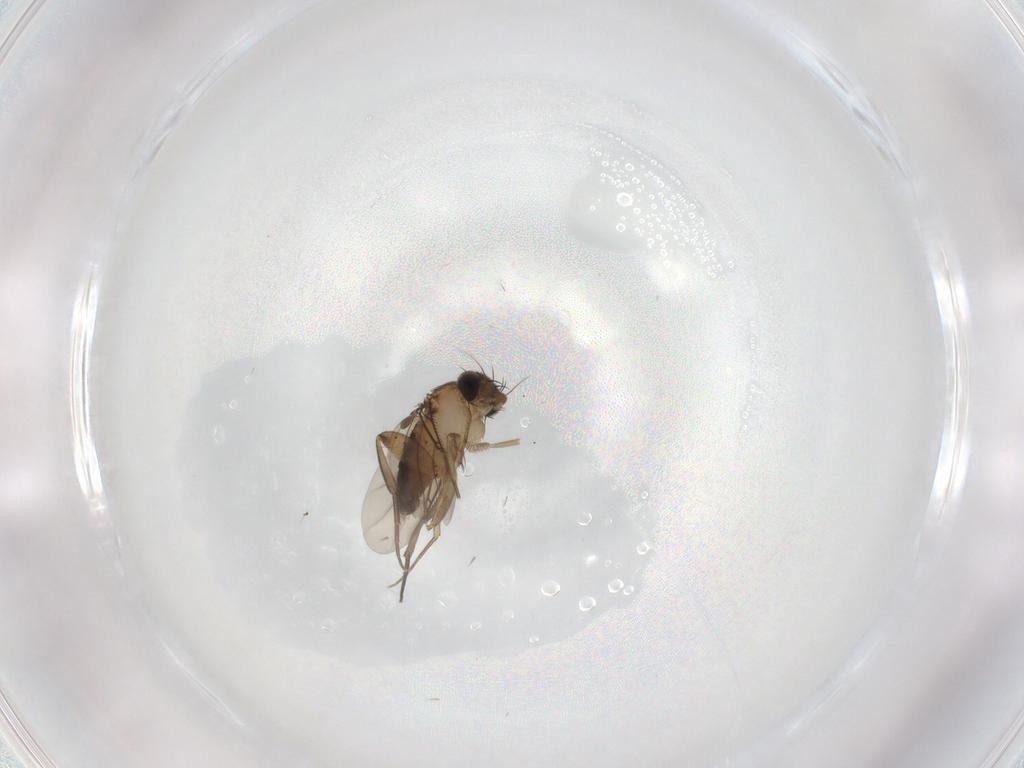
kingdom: Animalia
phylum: Arthropoda
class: Insecta
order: Diptera
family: Phoridae
